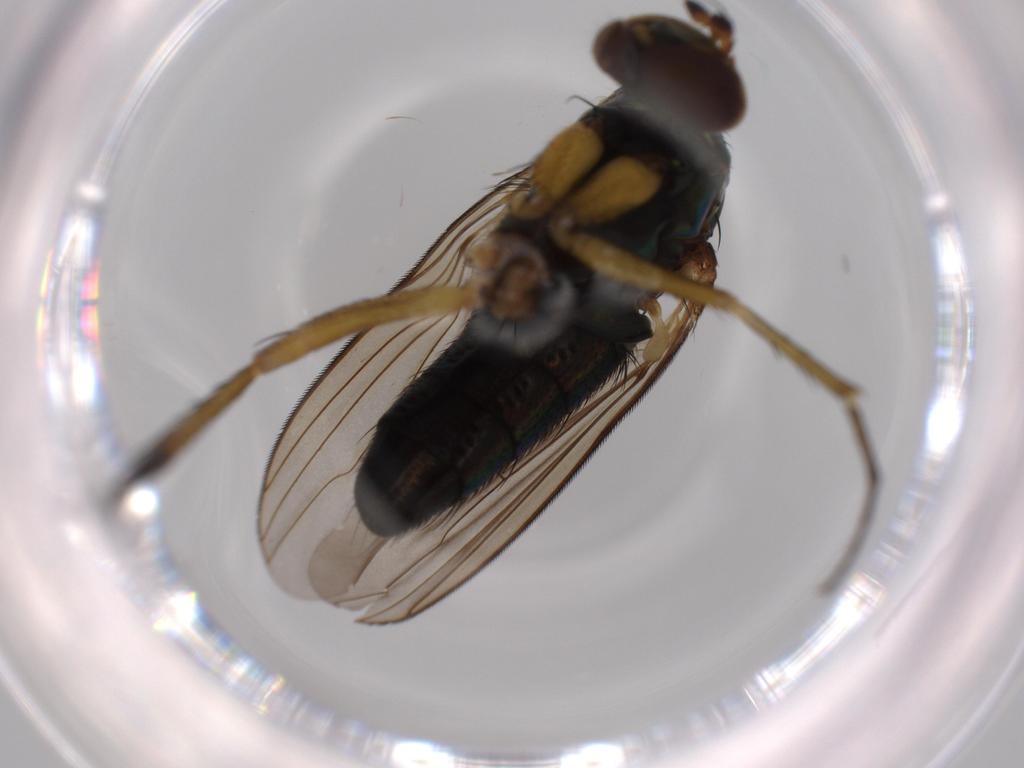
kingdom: Animalia
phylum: Arthropoda
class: Insecta
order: Diptera
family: Dolichopodidae
